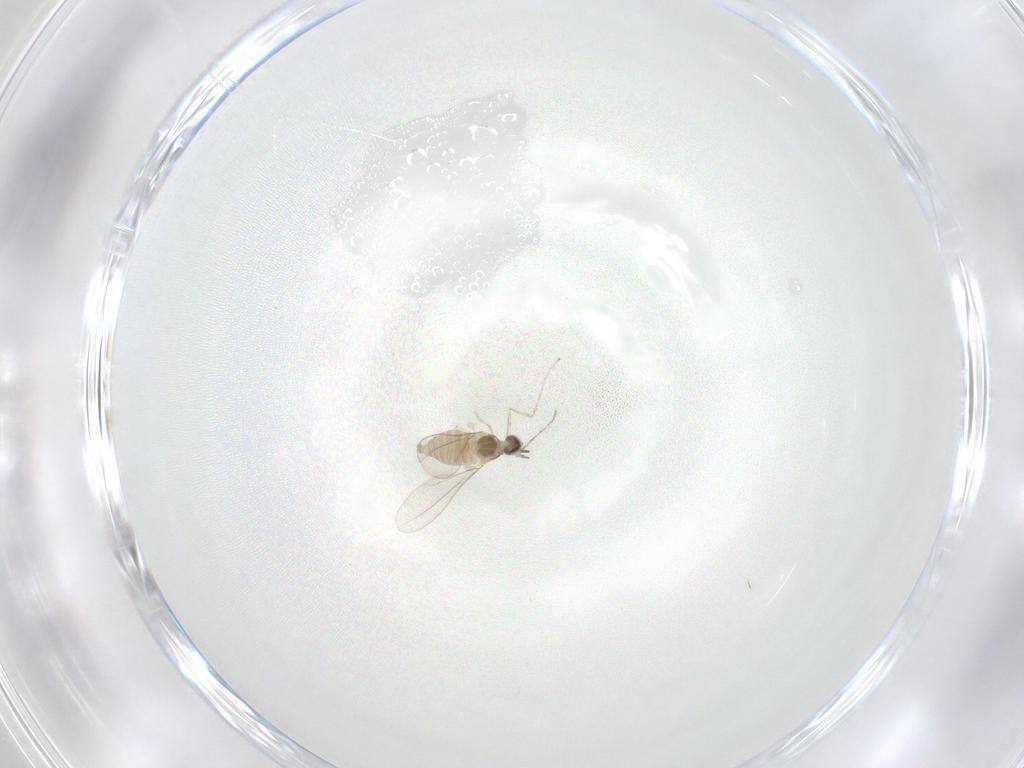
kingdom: Animalia
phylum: Arthropoda
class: Insecta
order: Diptera
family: Cecidomyiidae
